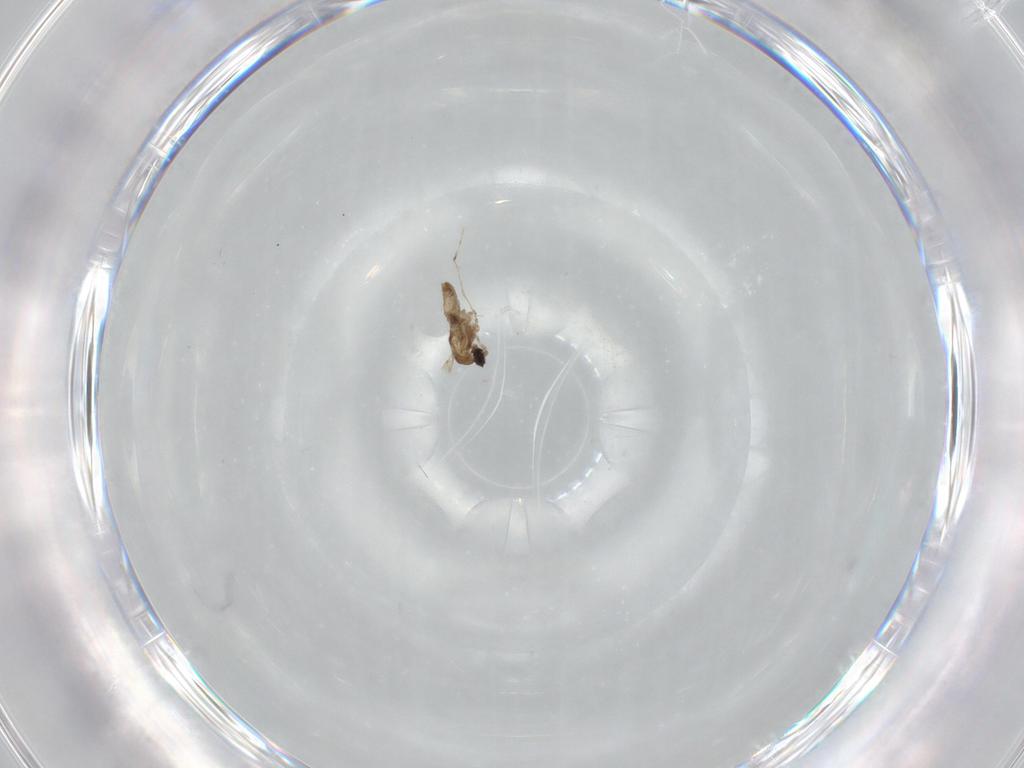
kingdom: Animalia
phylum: Arthropoda
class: Insecta
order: Diptera
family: Cecidomyiidae
